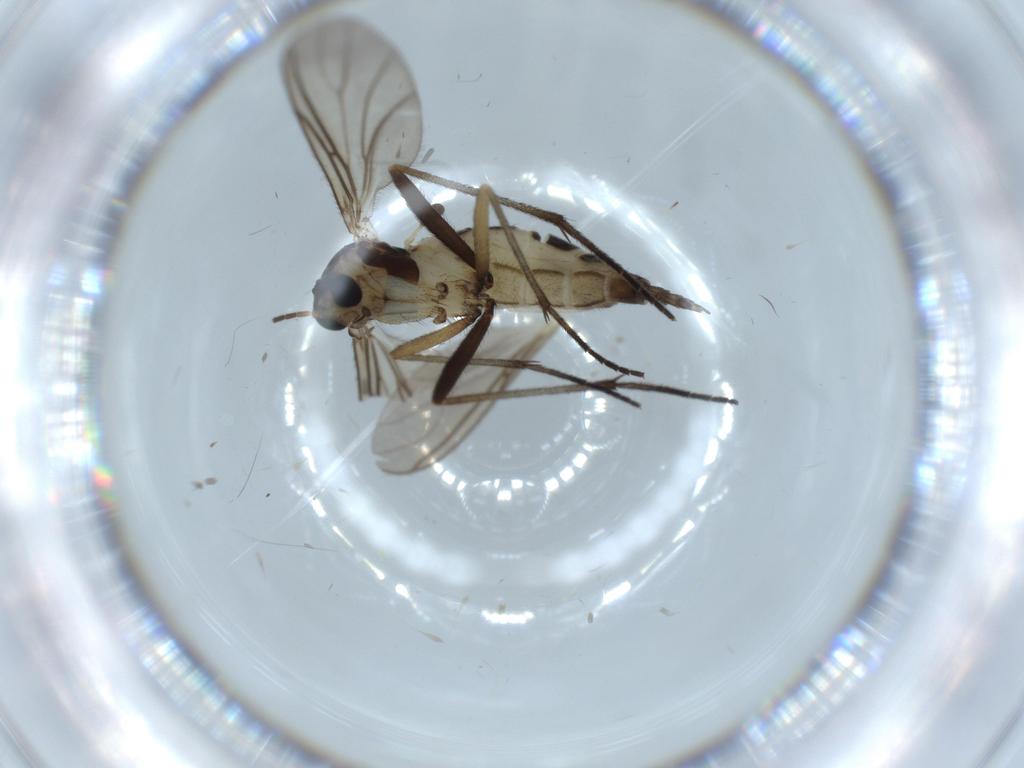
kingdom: Animalia
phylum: Arthropoda
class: Insecta
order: Diptera
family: Sciaridae
